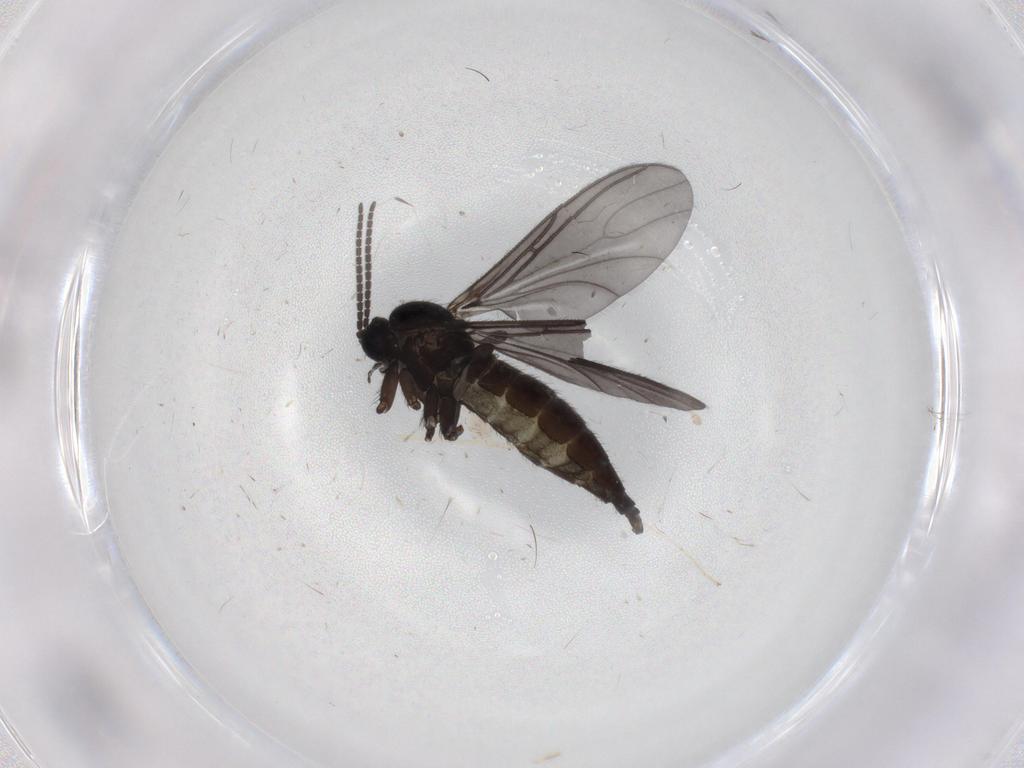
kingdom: Animalia
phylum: Arthropoda
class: Insecta
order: Diptera
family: Sciaridae
